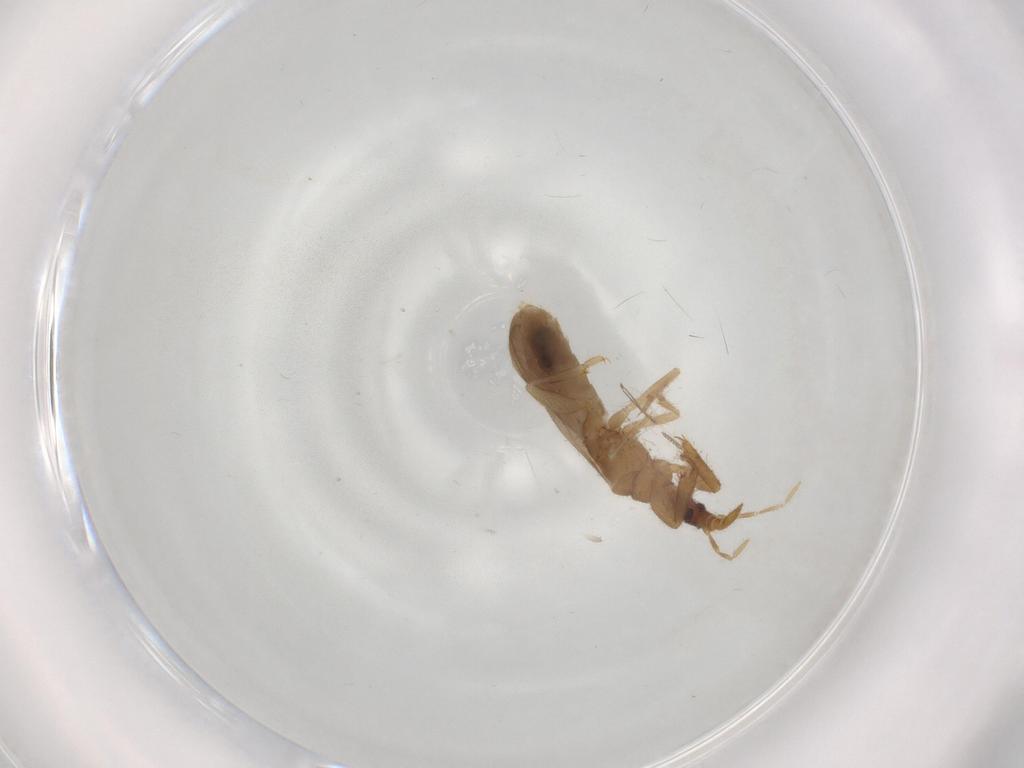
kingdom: Animalia
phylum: Arthropoda
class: Insecta
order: Hemiptera
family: Enicocephalidae
